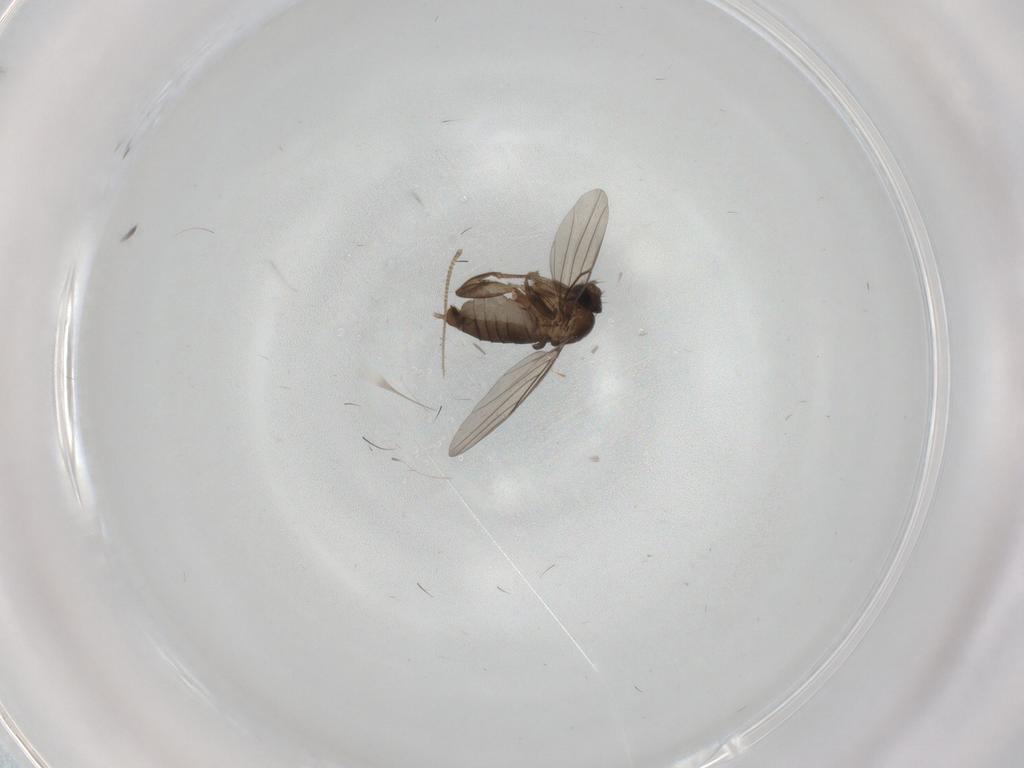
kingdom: Animalia
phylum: Arthropoda
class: Insecta
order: Diptera
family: Phoridae
